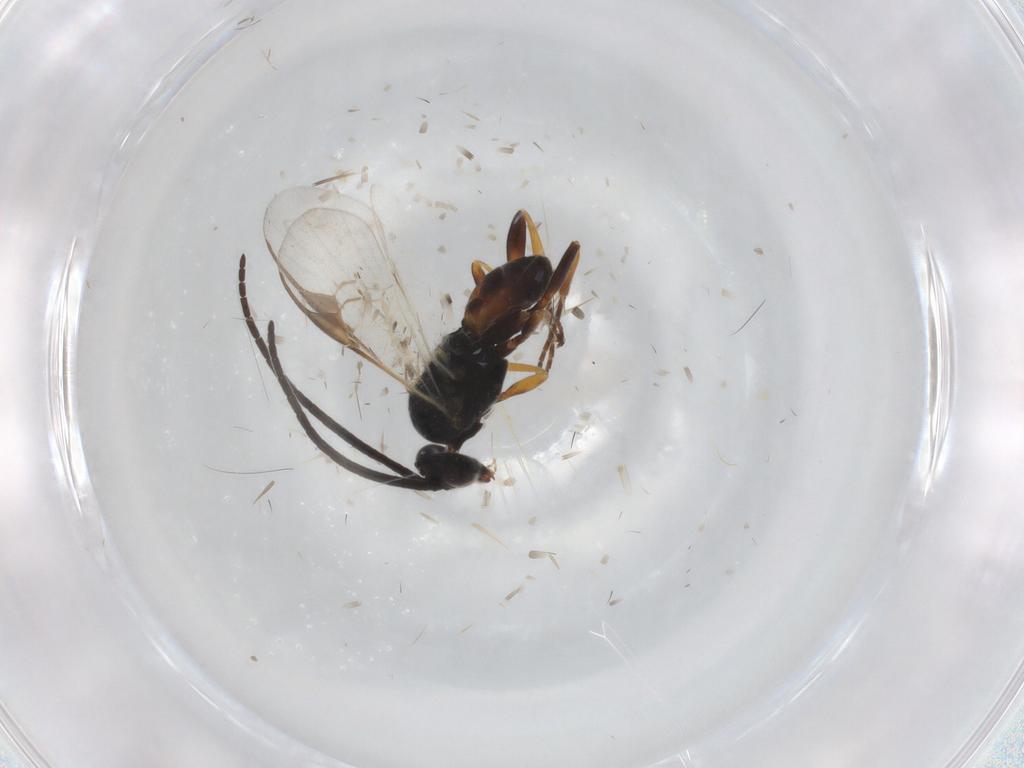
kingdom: Animalia
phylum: Arthropoda
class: Insecta
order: Hymenoptera
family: Braconidae
